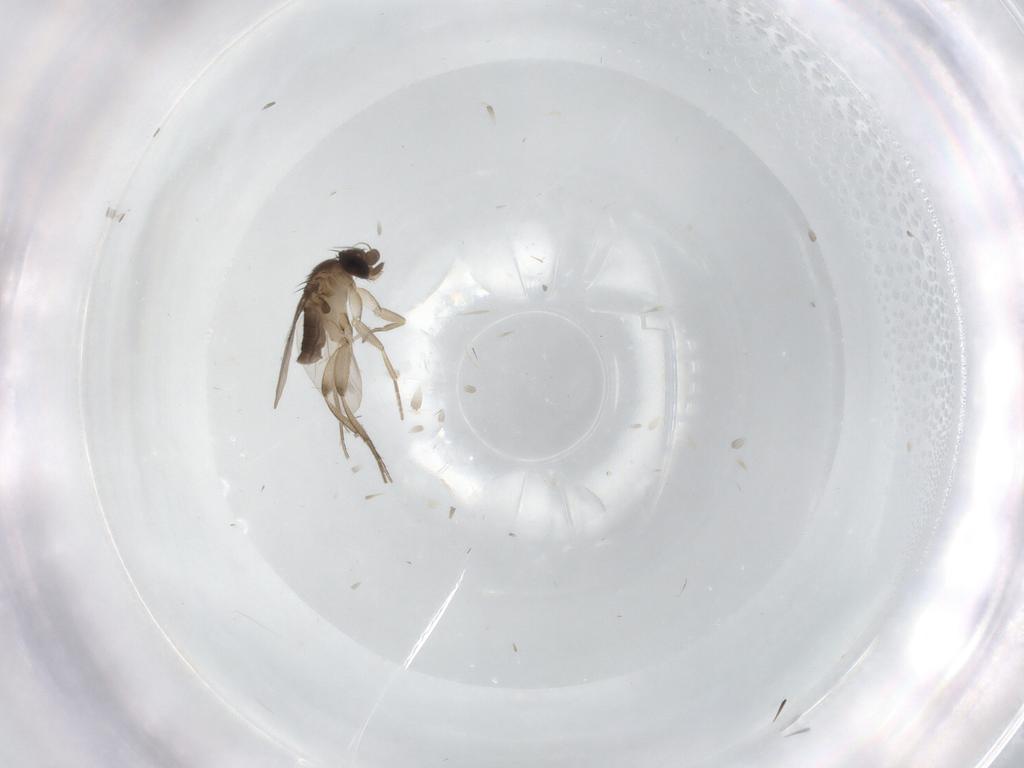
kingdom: Animalia
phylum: Arthropoda
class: Insecta
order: Diptera
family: Phoridae
